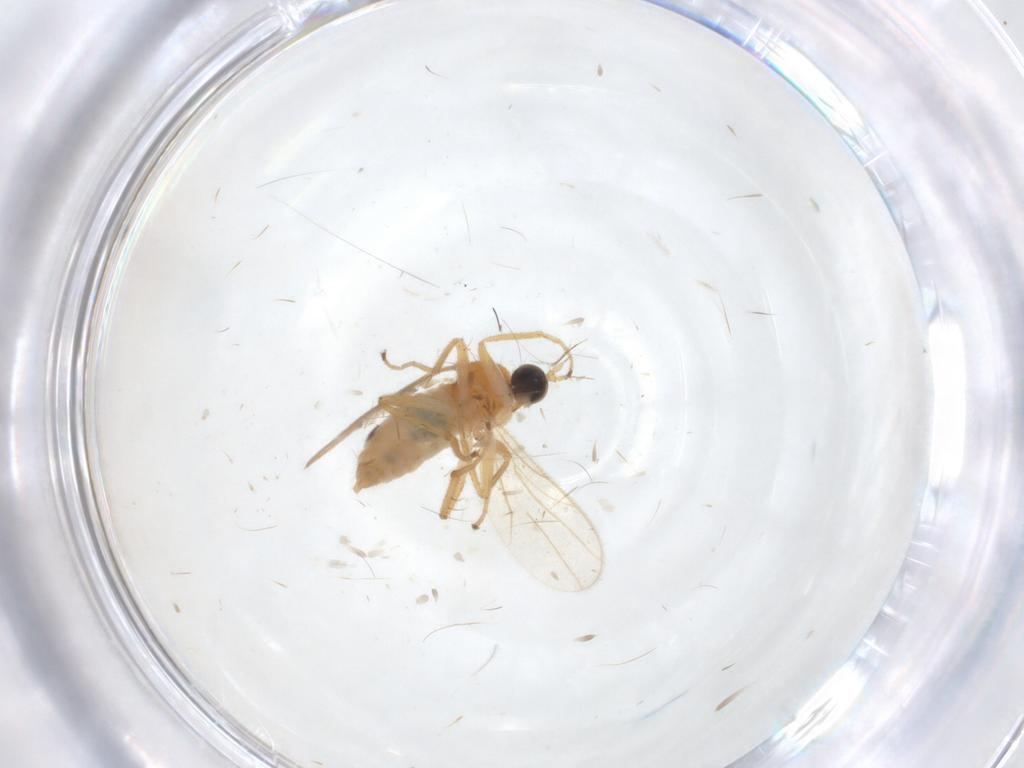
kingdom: Animalia
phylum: Arthropoda
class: Insecta
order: Diptera
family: Hybotidae
